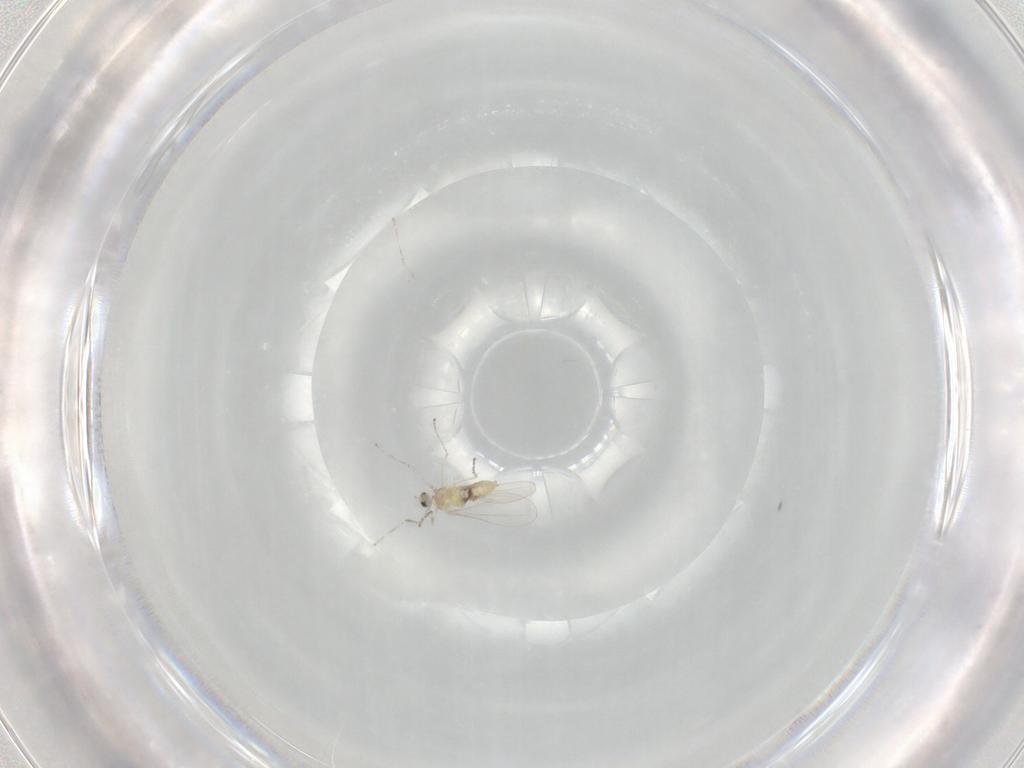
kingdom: Animalia
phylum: Arthropoda
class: Insecta
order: Diptera
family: Cecidomyiidae
